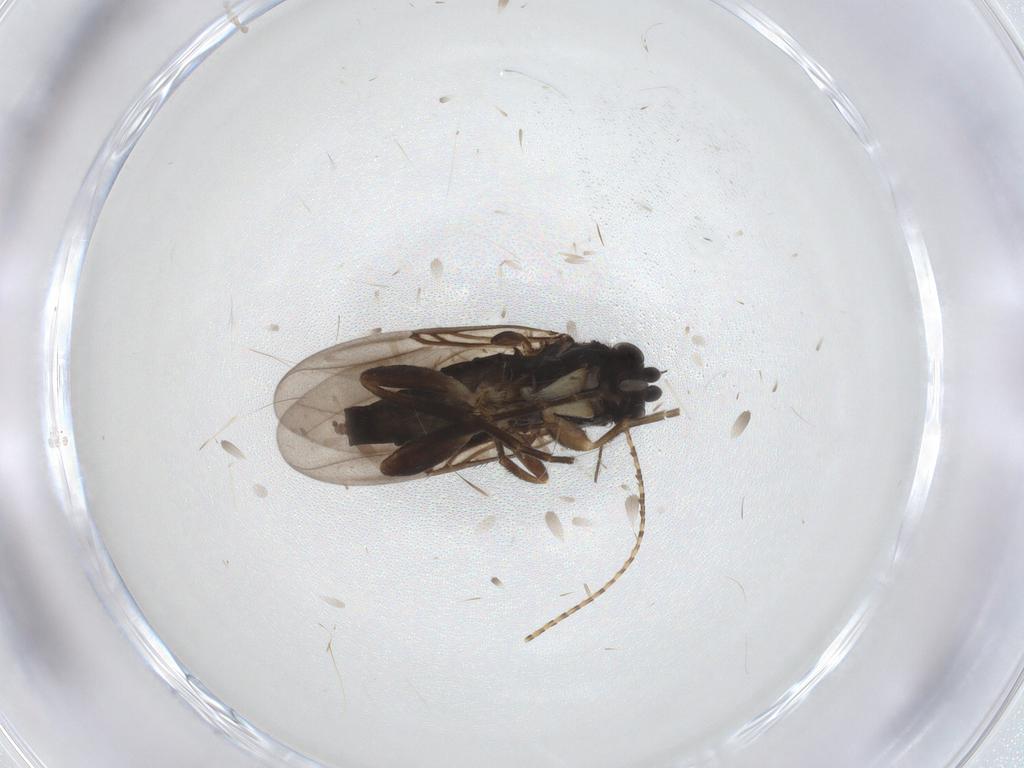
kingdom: Animalia
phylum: Arthropoda
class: Insecta
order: Diptera
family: Phoridae
